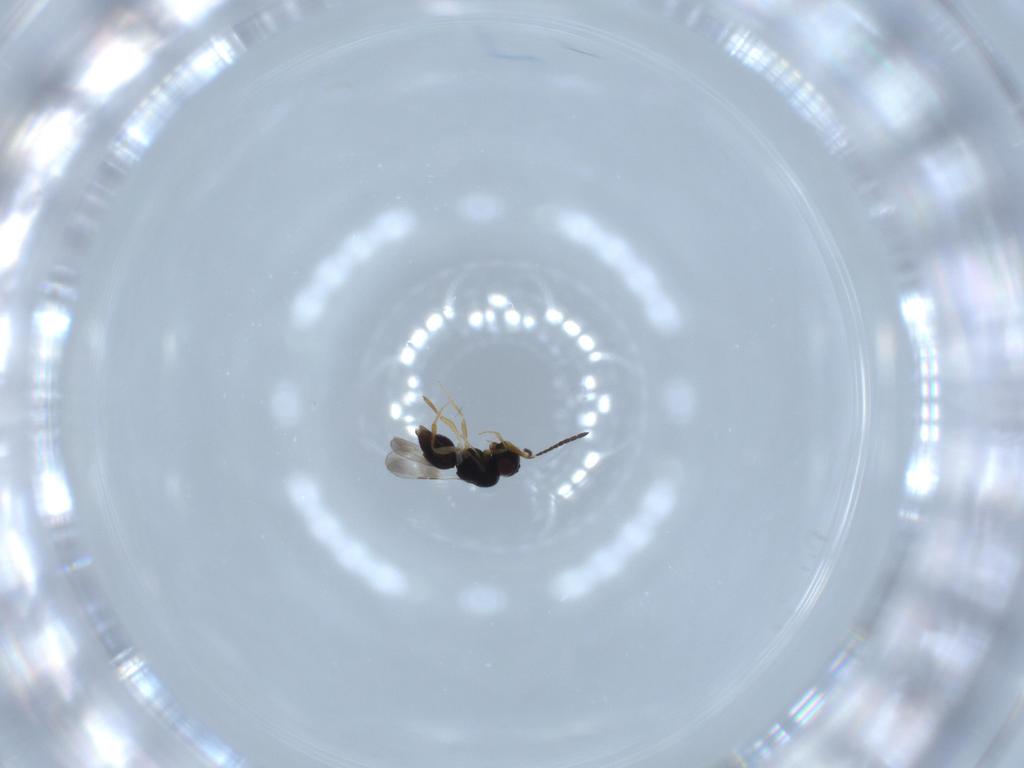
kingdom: Animalia
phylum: Arthropoda
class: Insecta
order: Hymenoptera
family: Ceraphronidae
